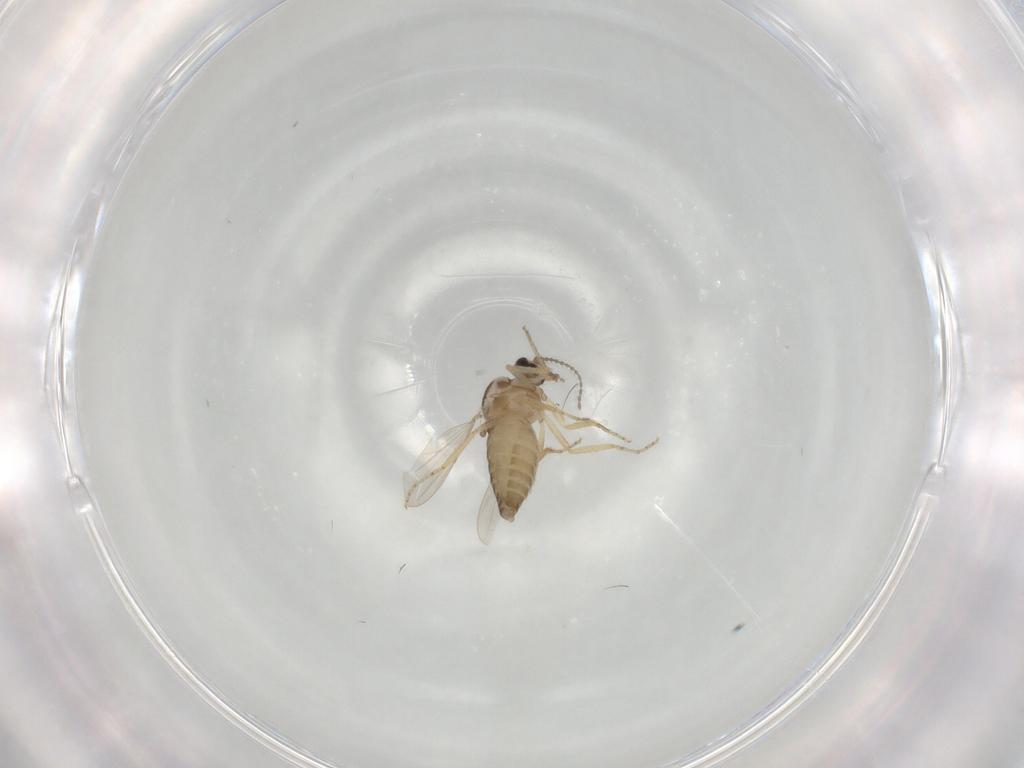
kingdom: Animalia
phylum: Arthropoda
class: Insecta
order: Diptera
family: Ceratopogonidae
